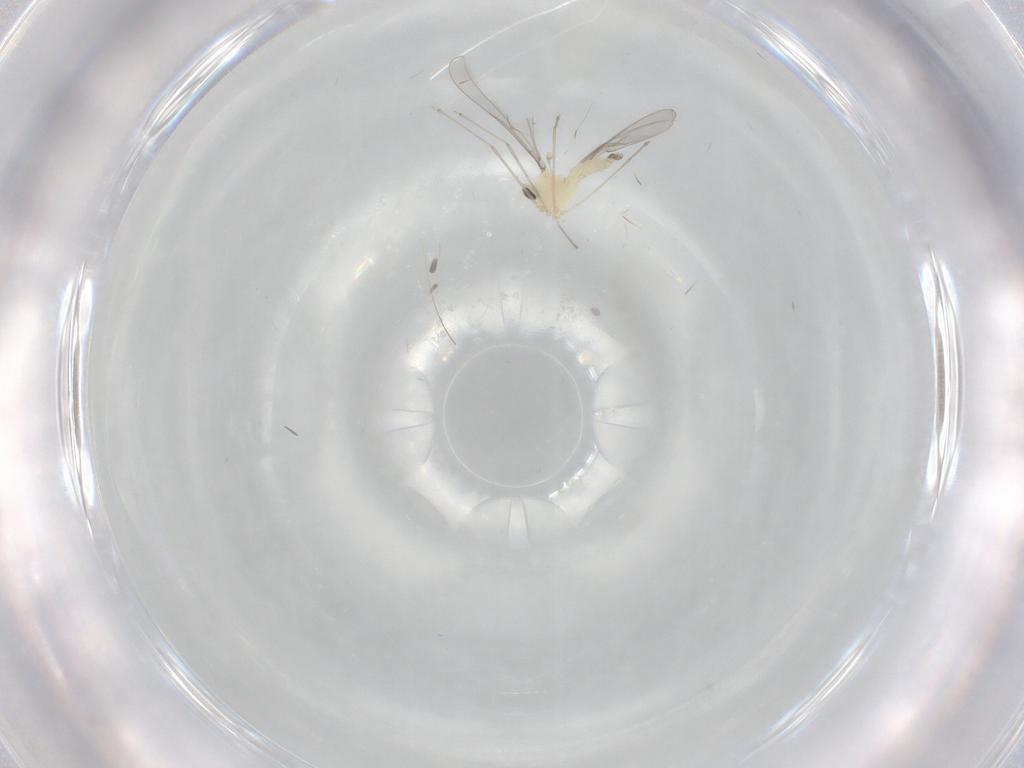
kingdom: Animalia
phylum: Arthropoda
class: Insecta
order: Diptera
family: Cecidomyiidae
